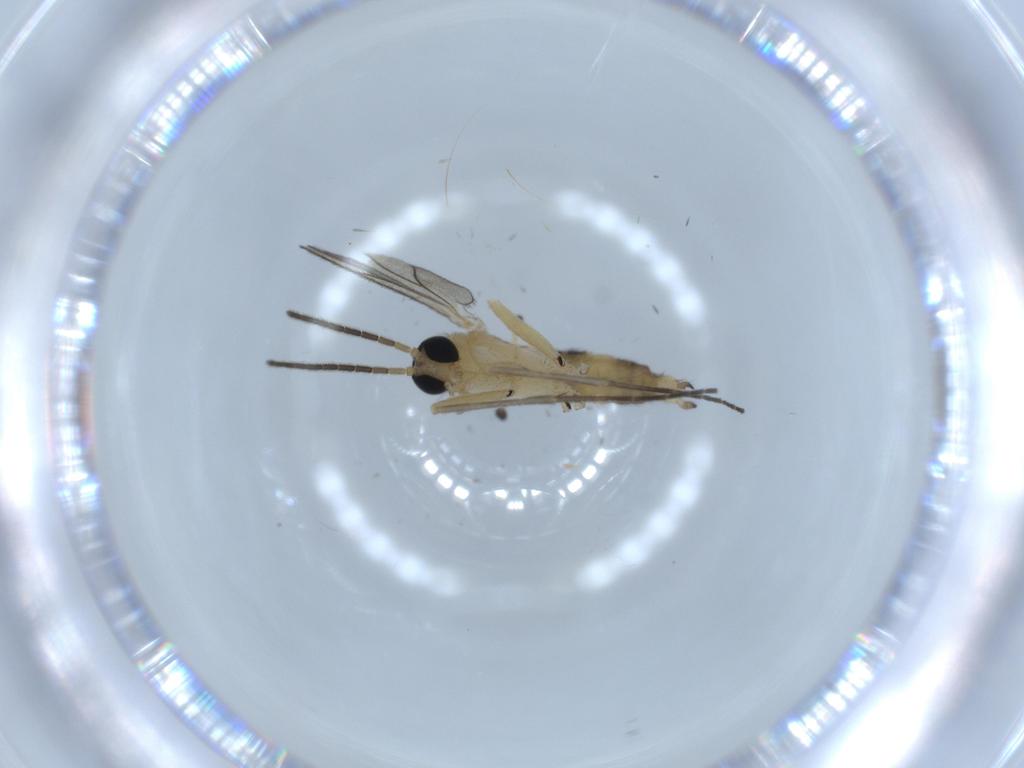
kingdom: Animalia
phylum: Arthropoda
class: Insecta
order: Diptera
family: Sciaridae
